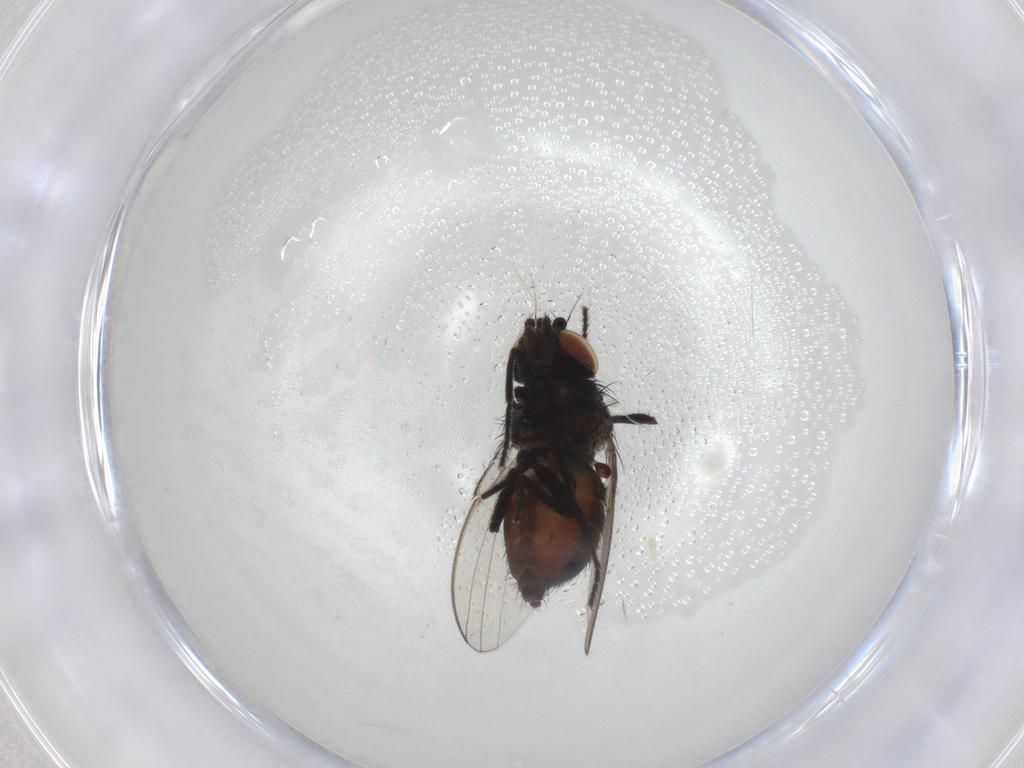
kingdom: Animalia
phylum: Arthropoda
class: Insecta
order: Diptera
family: Milichiidae
